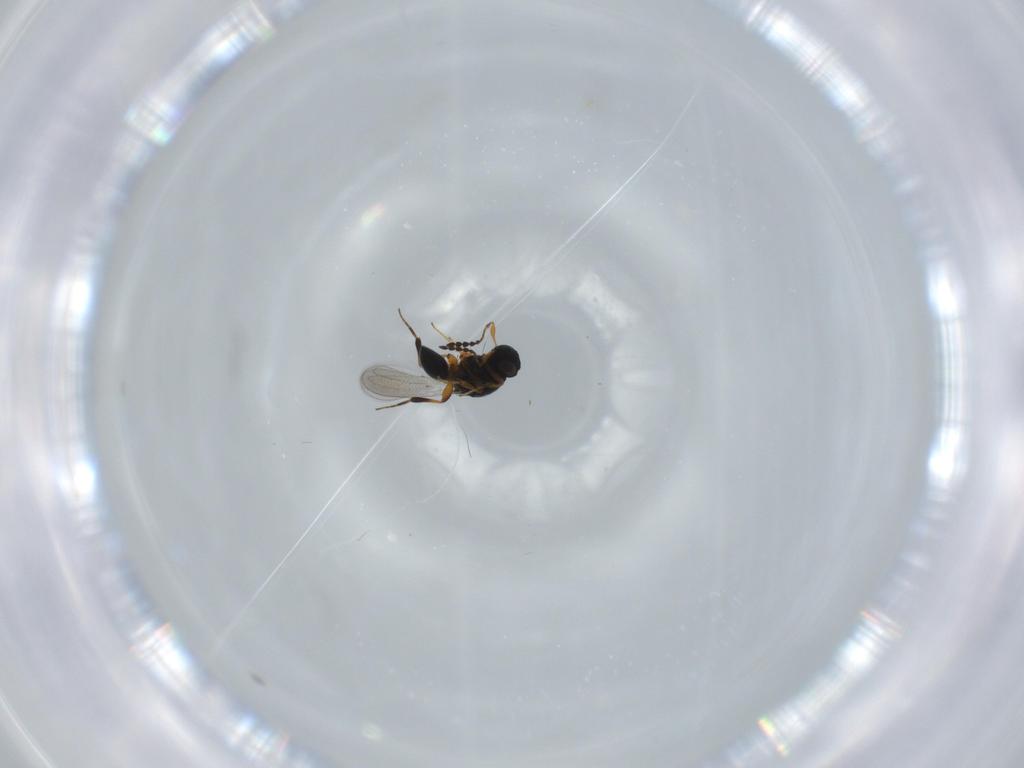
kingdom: Animalia
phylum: Arthropoda
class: Insecta
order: Hymenoptera
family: Platygastridae
